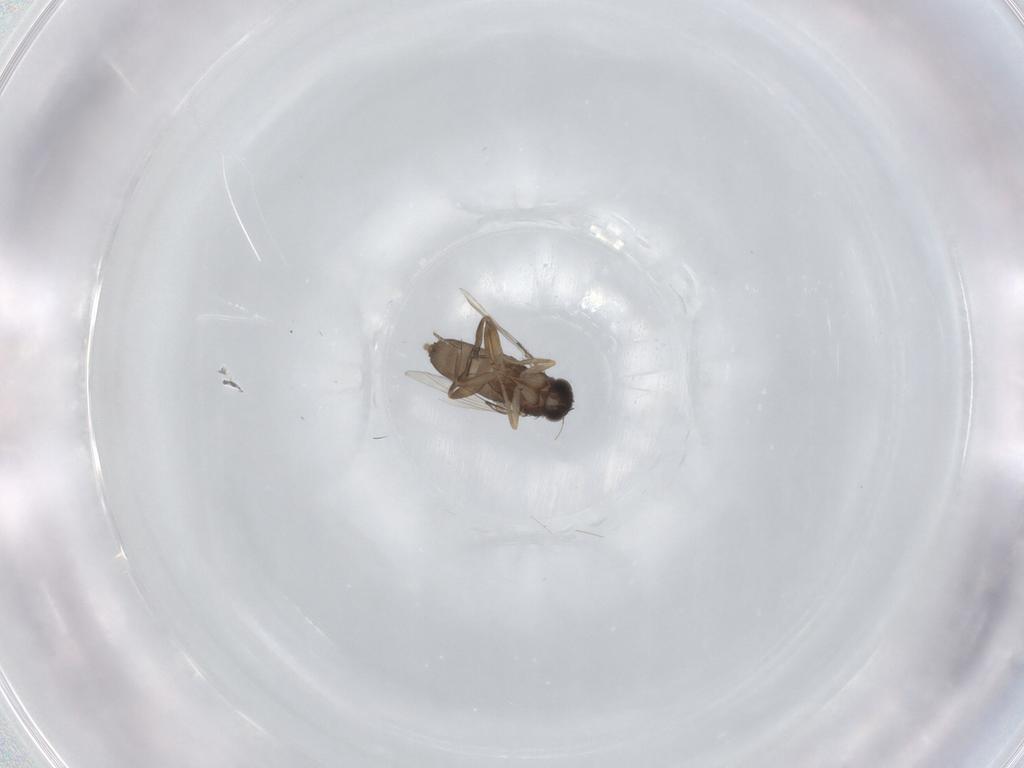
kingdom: Animalia
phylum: Arthropoda
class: Insecta
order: Diptera
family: Phoridae
